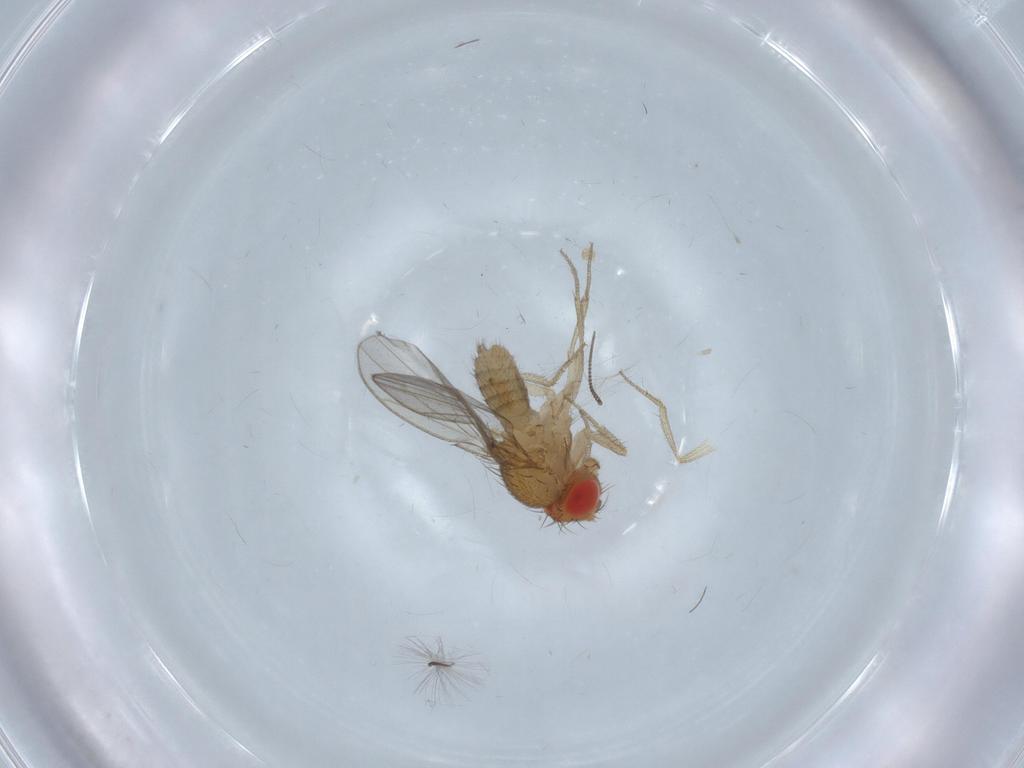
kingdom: Animalia
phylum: Arthropoda
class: Insecta
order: Diptera
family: Drosophilidae
